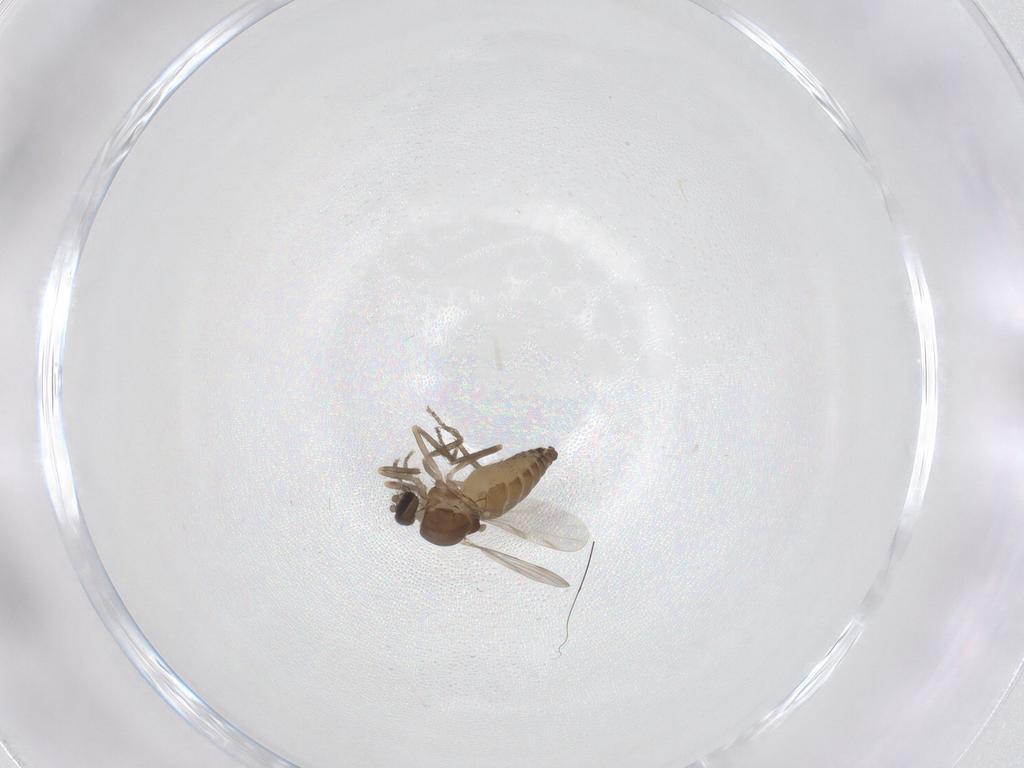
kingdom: Animalia
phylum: Arthropoda
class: Insecta
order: Diptera
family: Ceratopogonidae
